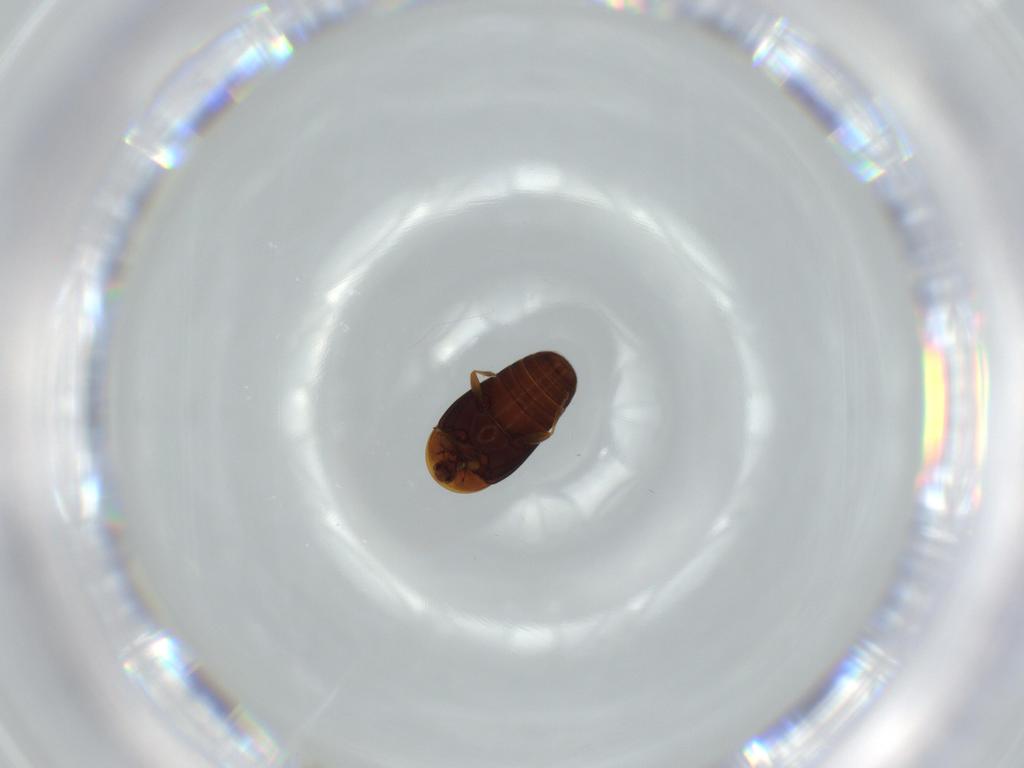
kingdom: Animalia
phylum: Arthropoda
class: Insecta
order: Coleoptera
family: Corylophidae
